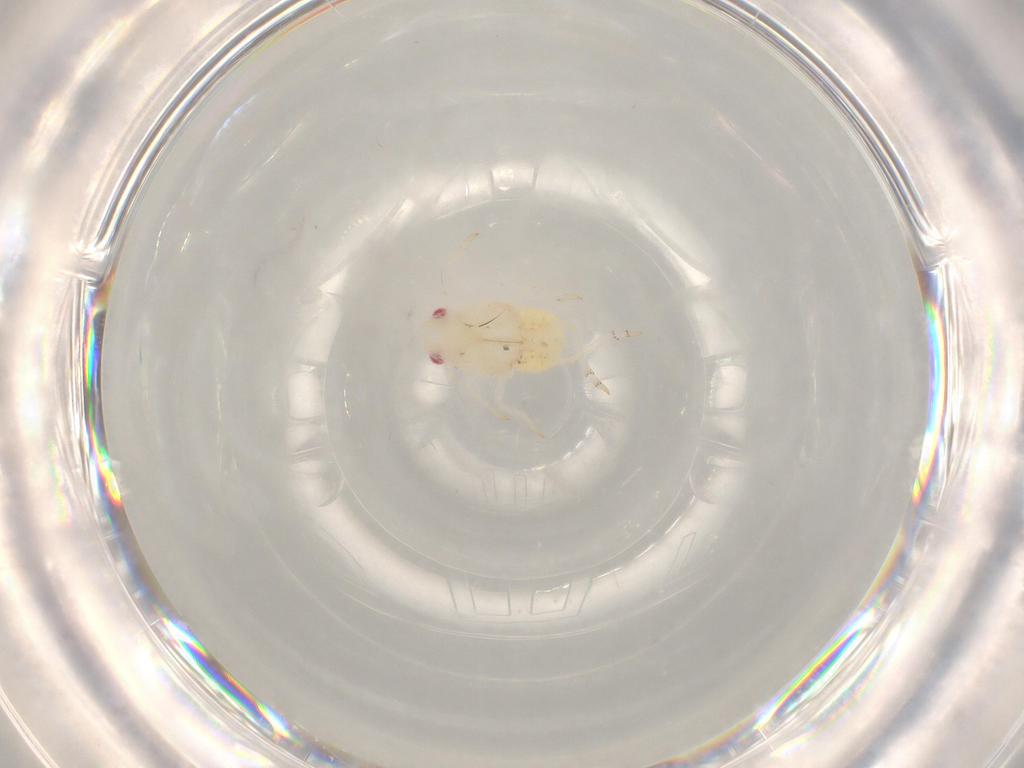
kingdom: Animalia
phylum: Arthropoda
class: Insecta
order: Hemiptera
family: Flatidae
